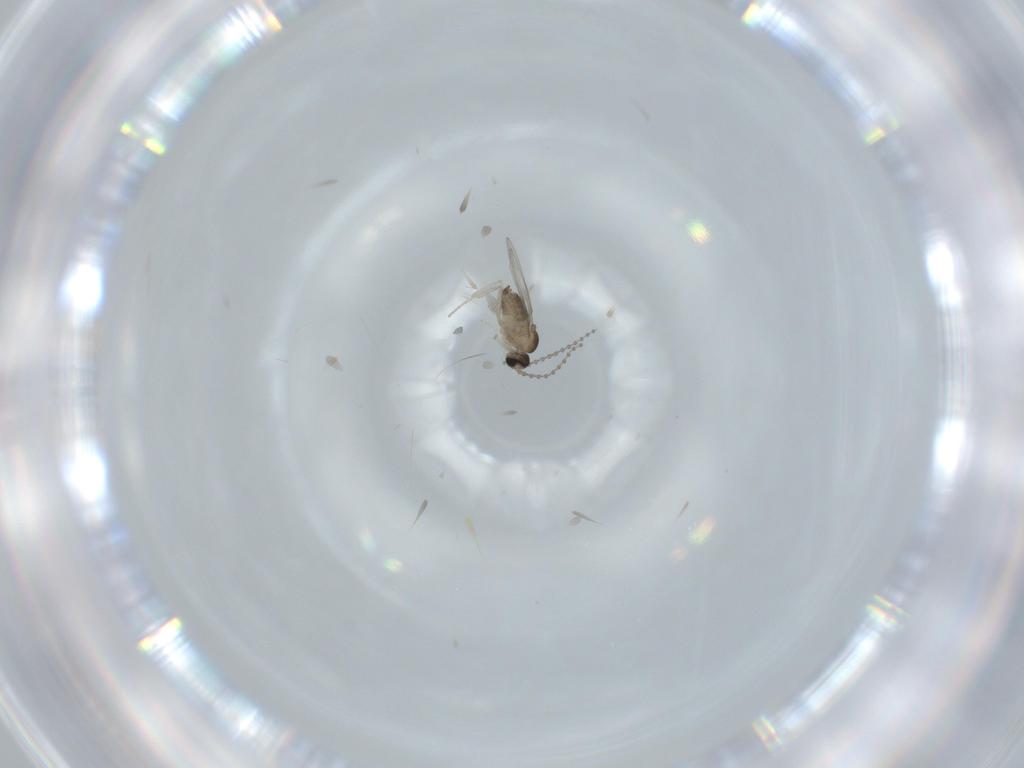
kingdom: Animalia
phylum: Arthropoda
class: Insecta
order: Diptera
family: Cecidomyiidae
